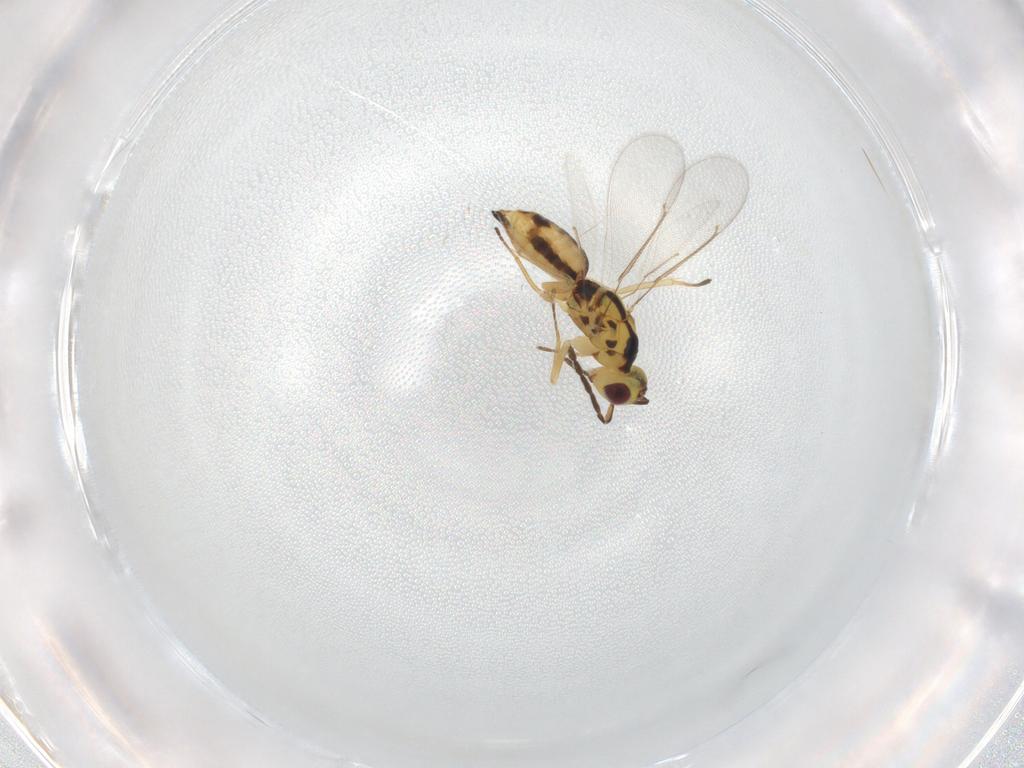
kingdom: Animalia
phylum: Arthropoda
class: Insecta
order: Hymenoptera
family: Eulophidae
